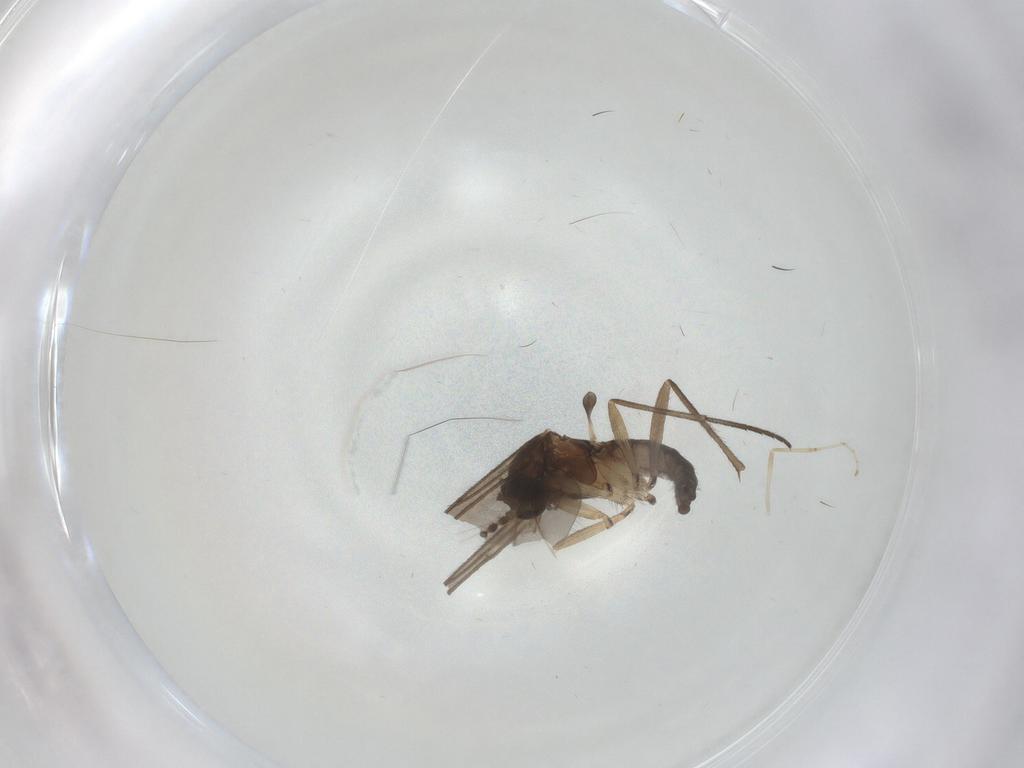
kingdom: Animalia
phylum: Arthropoda
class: Insecta
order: Diptera
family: Sciaridae
